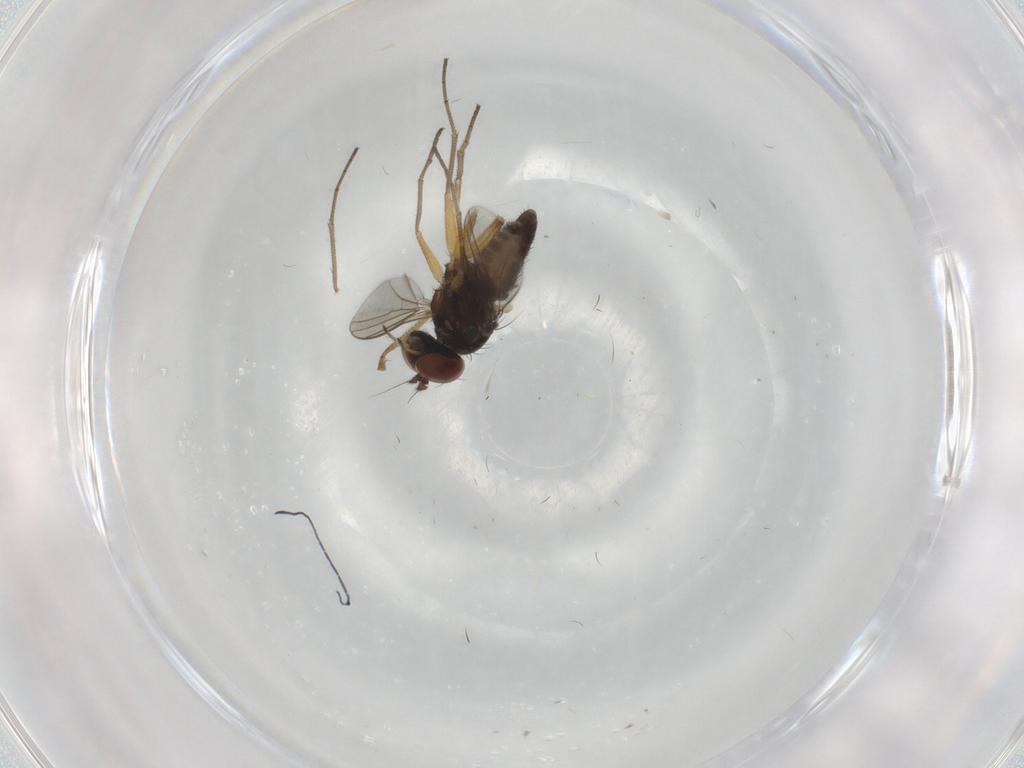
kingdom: Animalia
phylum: Arthropoda
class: Insecta
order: Diptera
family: Dolichopodidae
